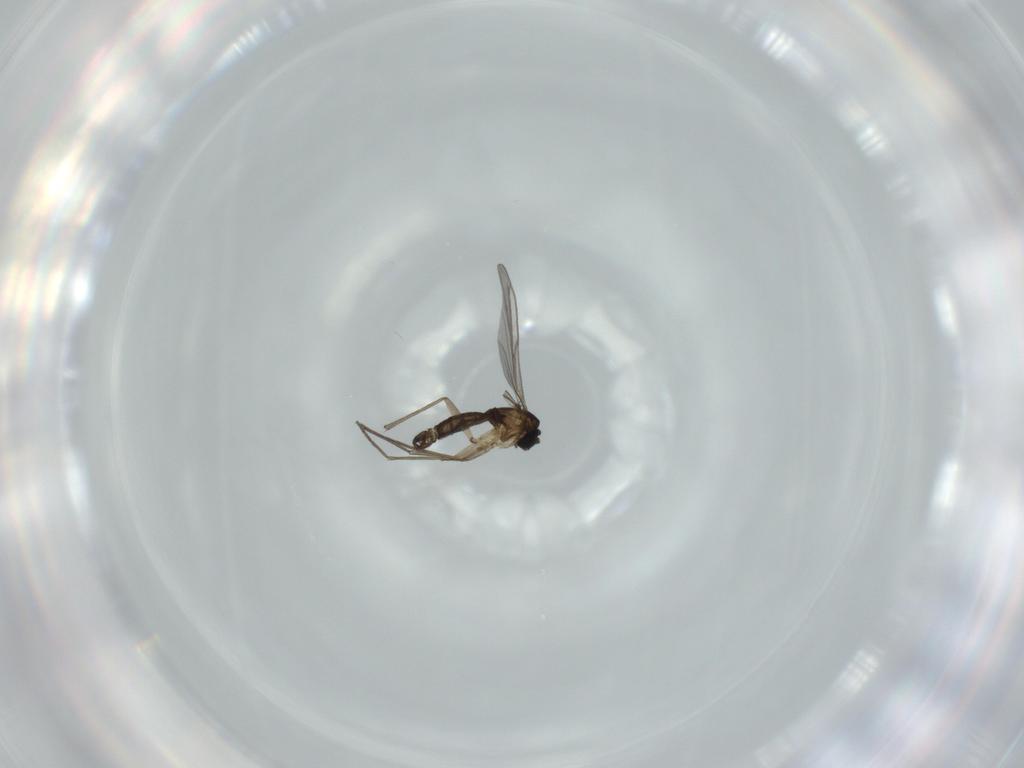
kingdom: Animalia
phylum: Arthropoda
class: Insecta
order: Diptera
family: Sciaridae
